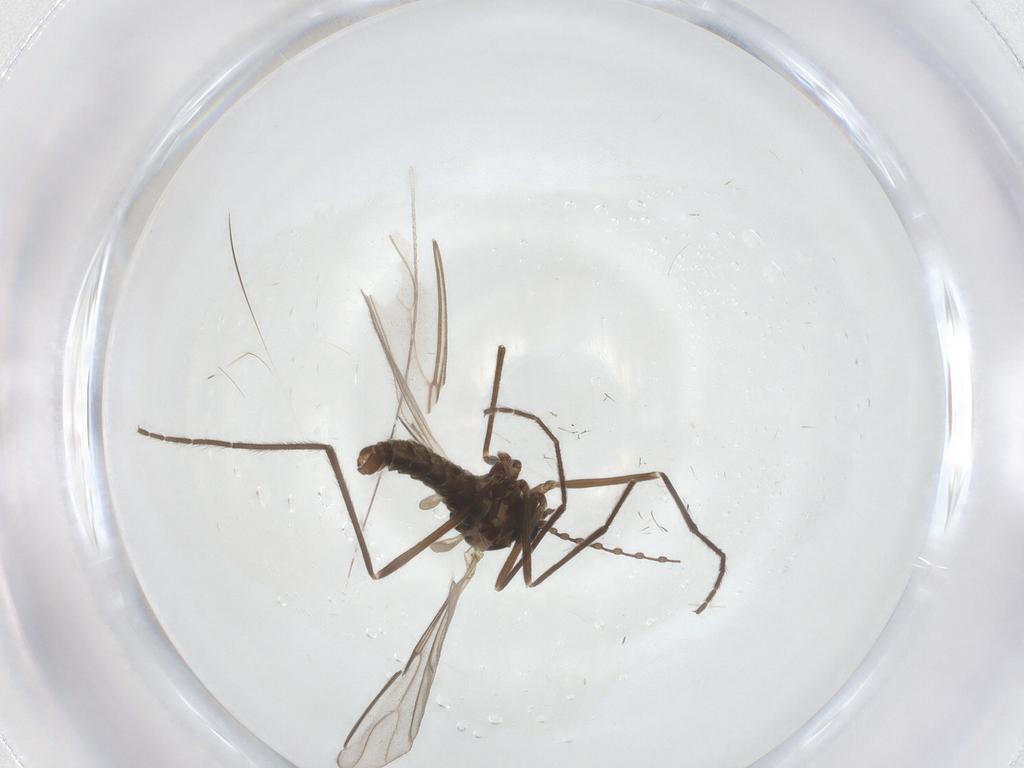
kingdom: Animalia
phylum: Arthropoda
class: Insecta
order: Diptera
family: Cecidomyiidae
